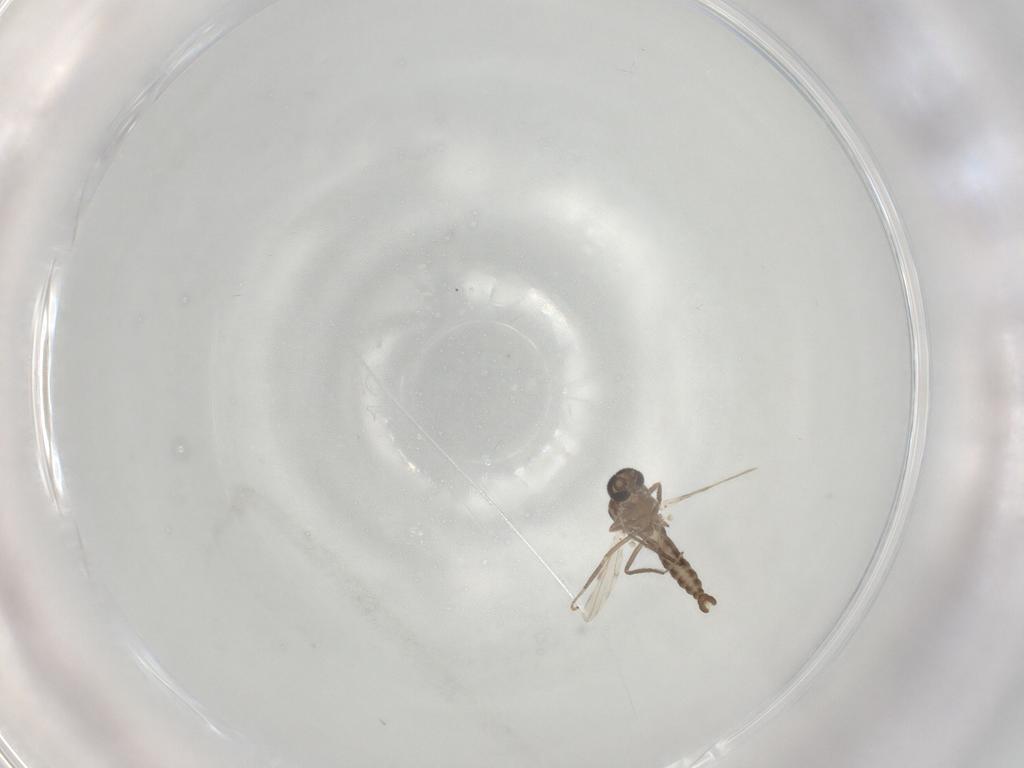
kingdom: Animalia
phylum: Arthropoda
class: Insecta
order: Diptera
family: Ceratopogonidae
